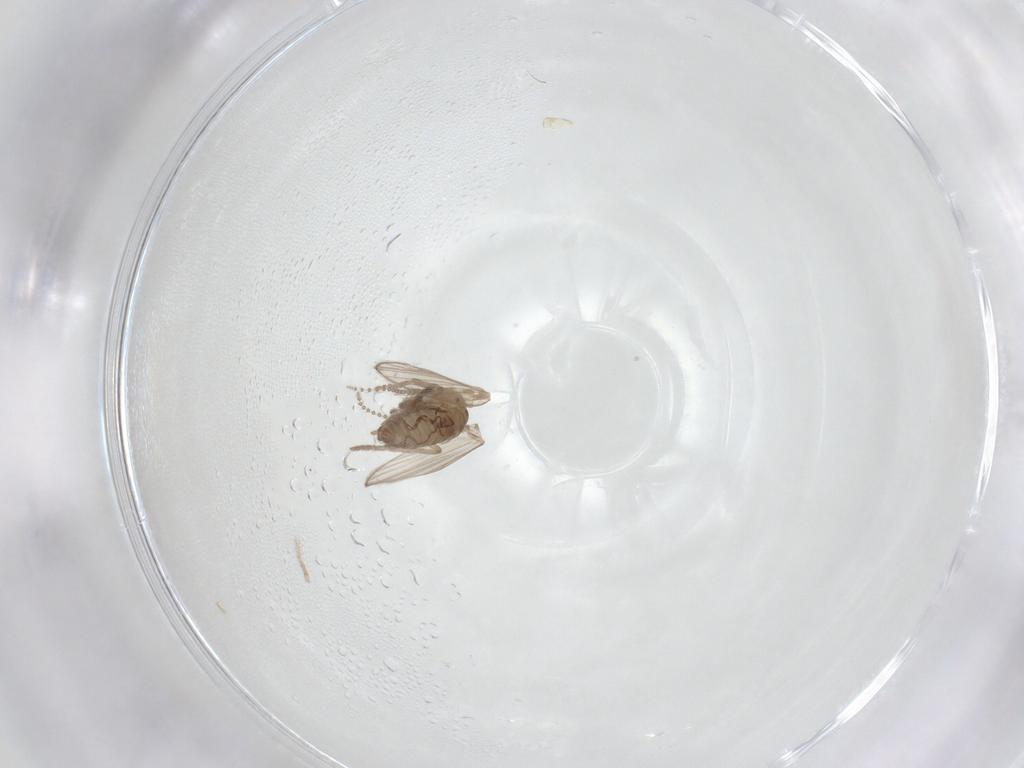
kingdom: Animalia
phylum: Arthropoda
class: Insecta
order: Diptera
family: Psychodidae
